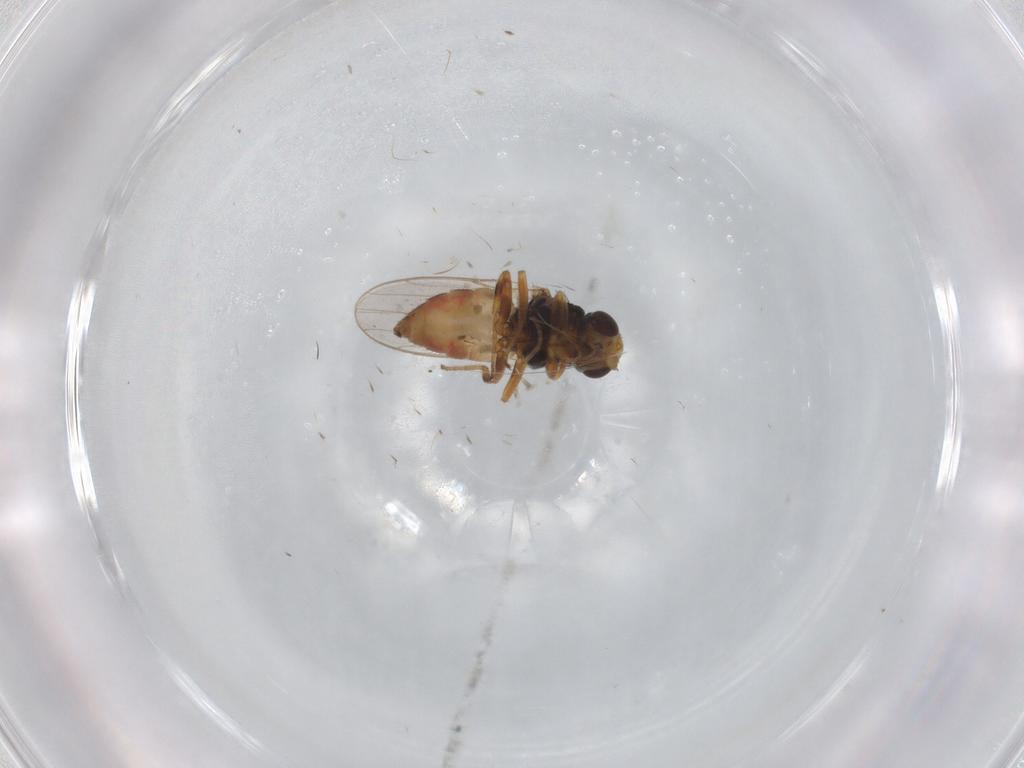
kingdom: Animalia
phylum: Arthropoda
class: Insecta
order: Diptera
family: Chloropidae
